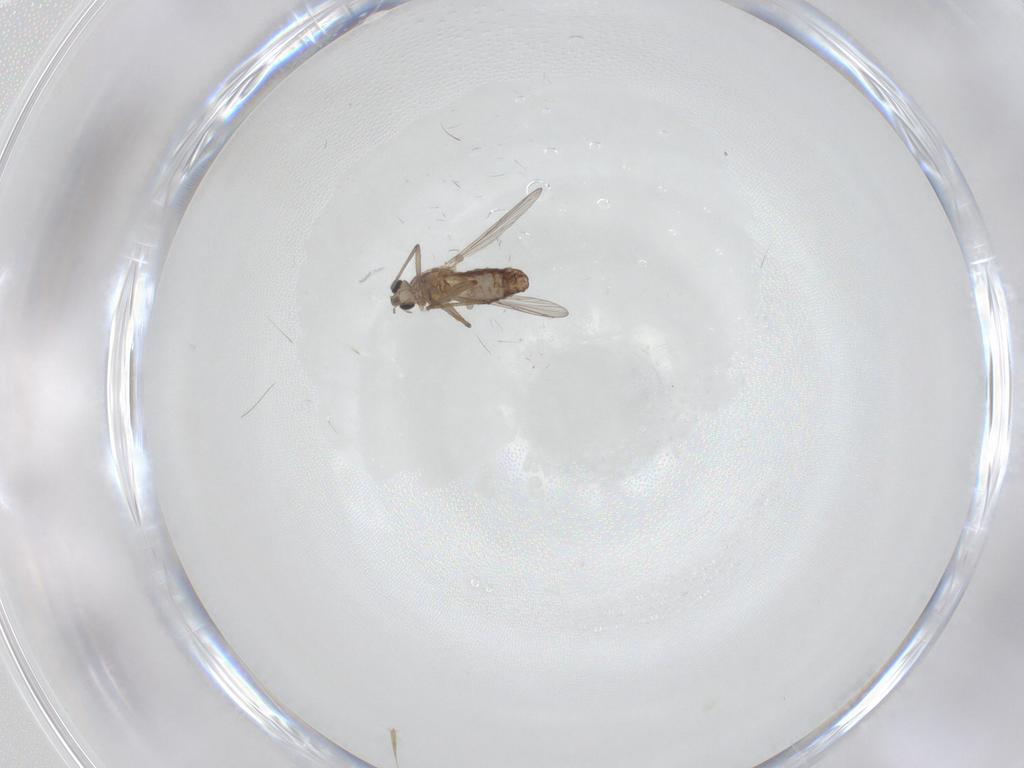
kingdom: Animalia
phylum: Arthropoda
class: Insecta
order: Diptera
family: Chironomidae
